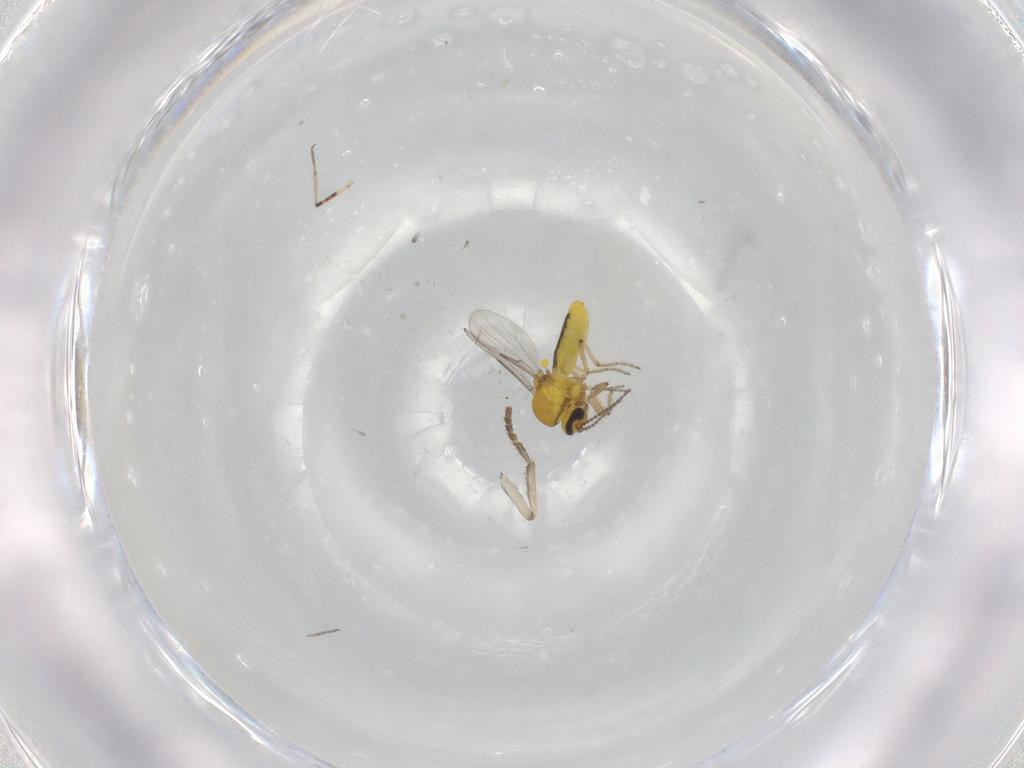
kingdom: Animalia
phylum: Arthropoda
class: Insecta
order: Diptera
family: Ceratopogonidae
